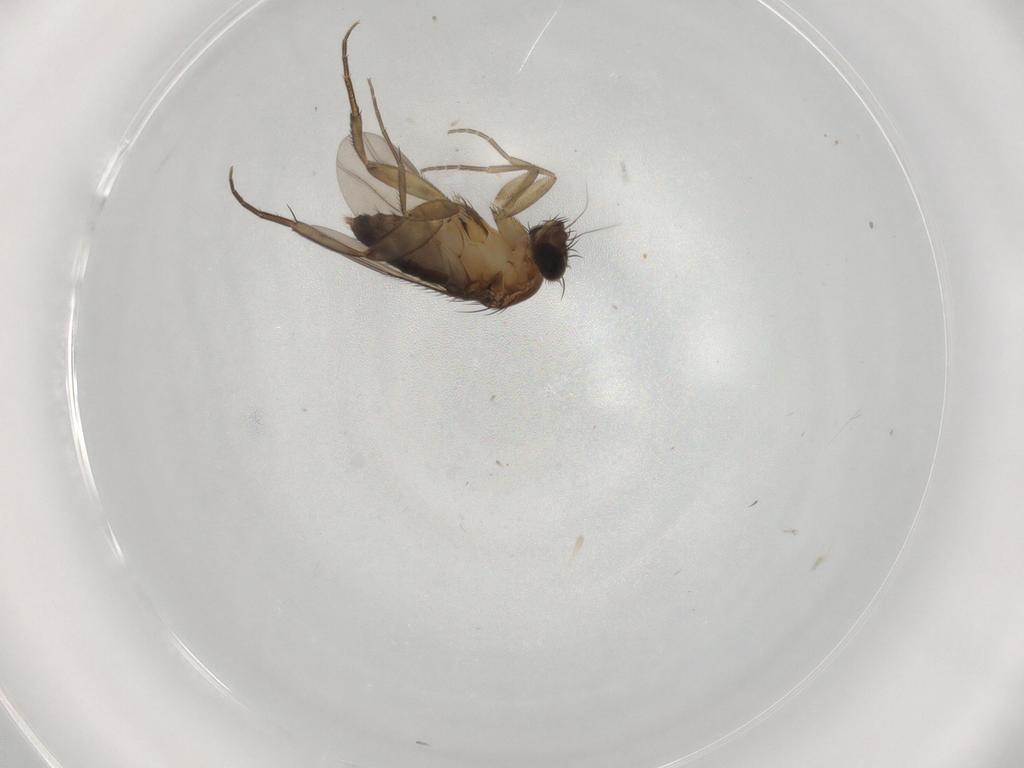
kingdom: Animalia
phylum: Arthropoda
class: Insecta
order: Diptera
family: Phoridae
